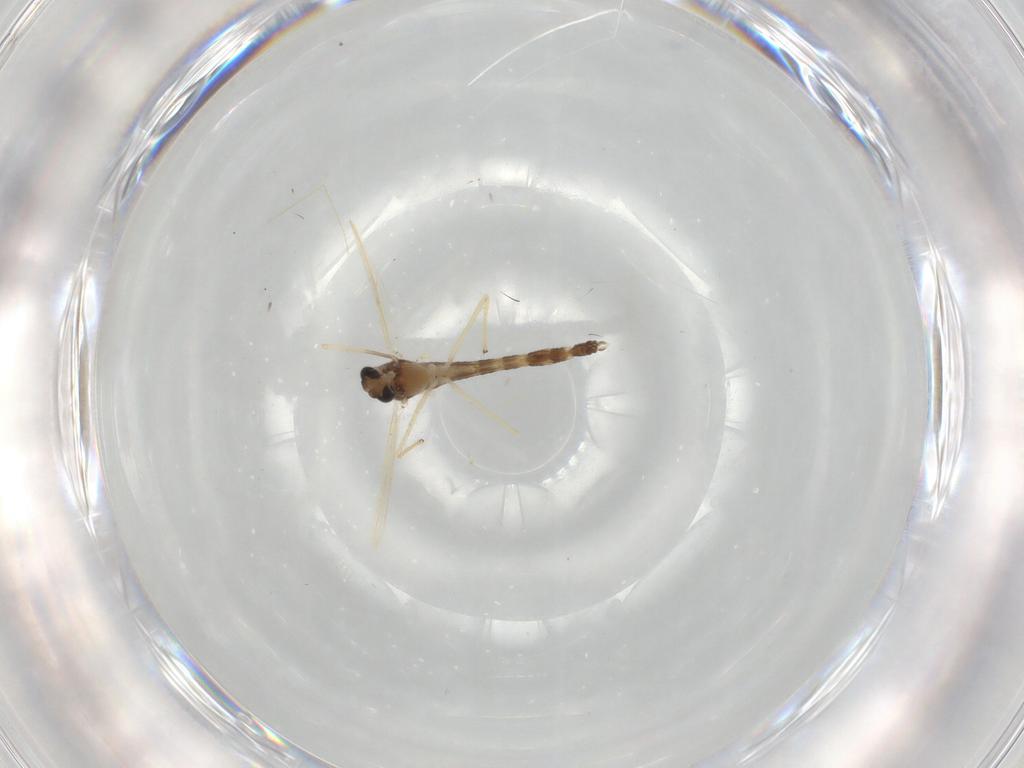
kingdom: Animalia
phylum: Arthropoda
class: Insecta
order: Diptera
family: Chironomidae
